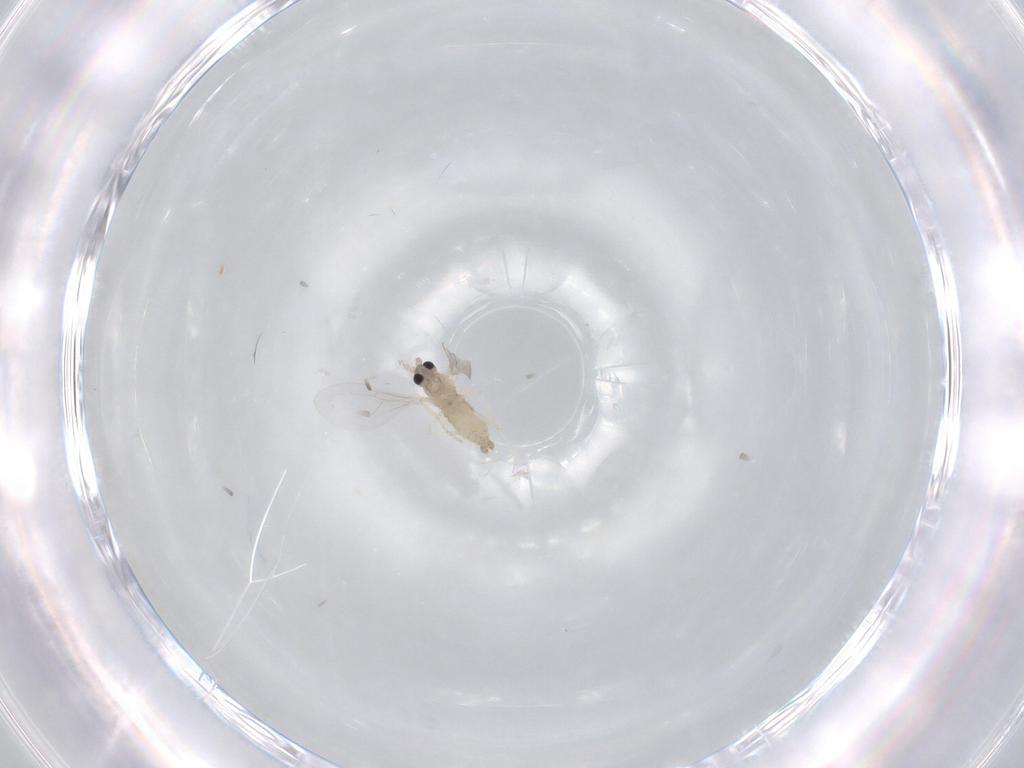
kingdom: Animalia
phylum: Arthropoda
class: Insecta
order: Diptera
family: Cecidomyiidae
